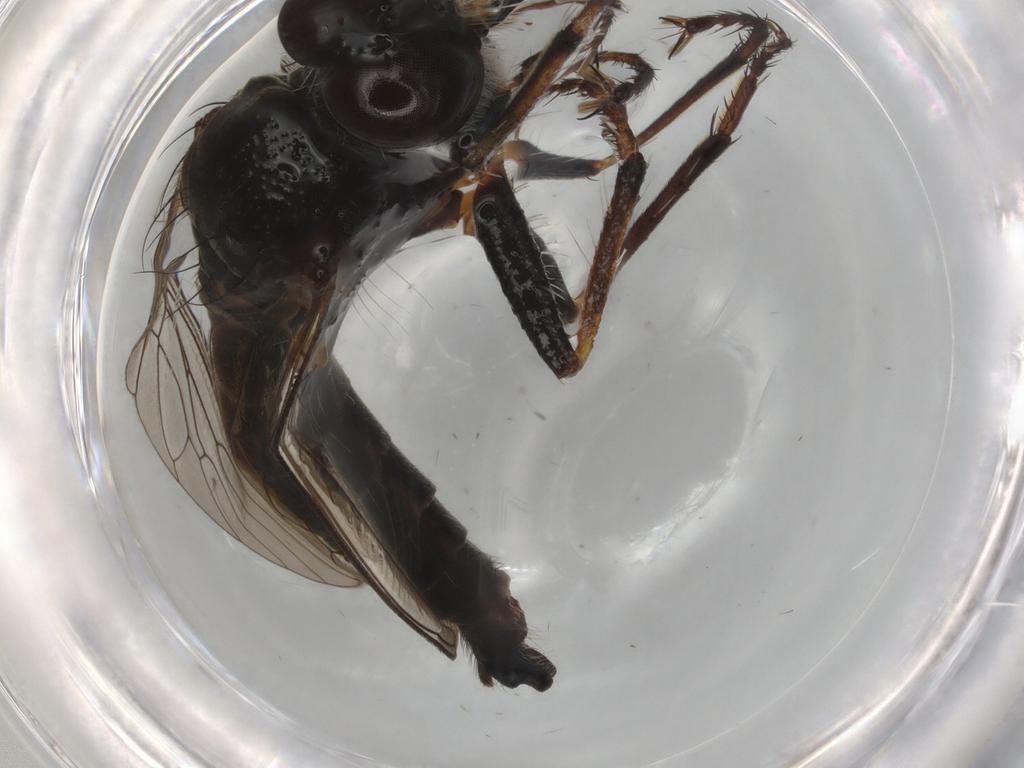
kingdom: Animalia
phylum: Arthropoda
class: Insecta
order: Diptera
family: Asilidae
